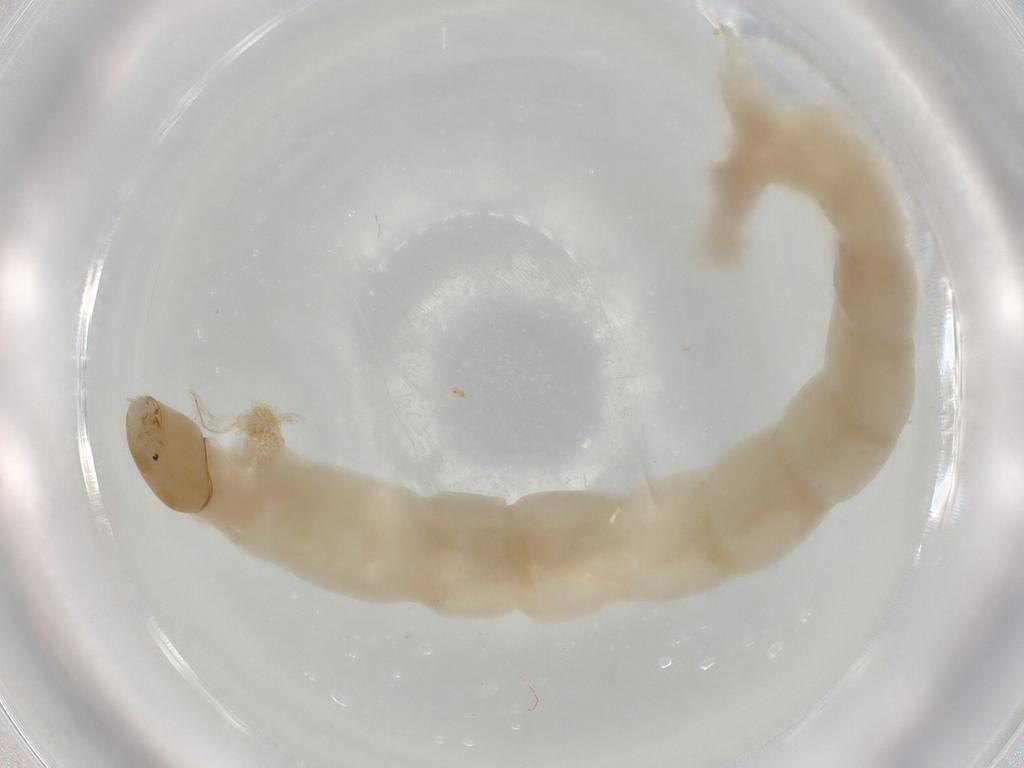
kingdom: Animalia
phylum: Arthropoda
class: Insecta
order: Diptera
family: Chironomidae
